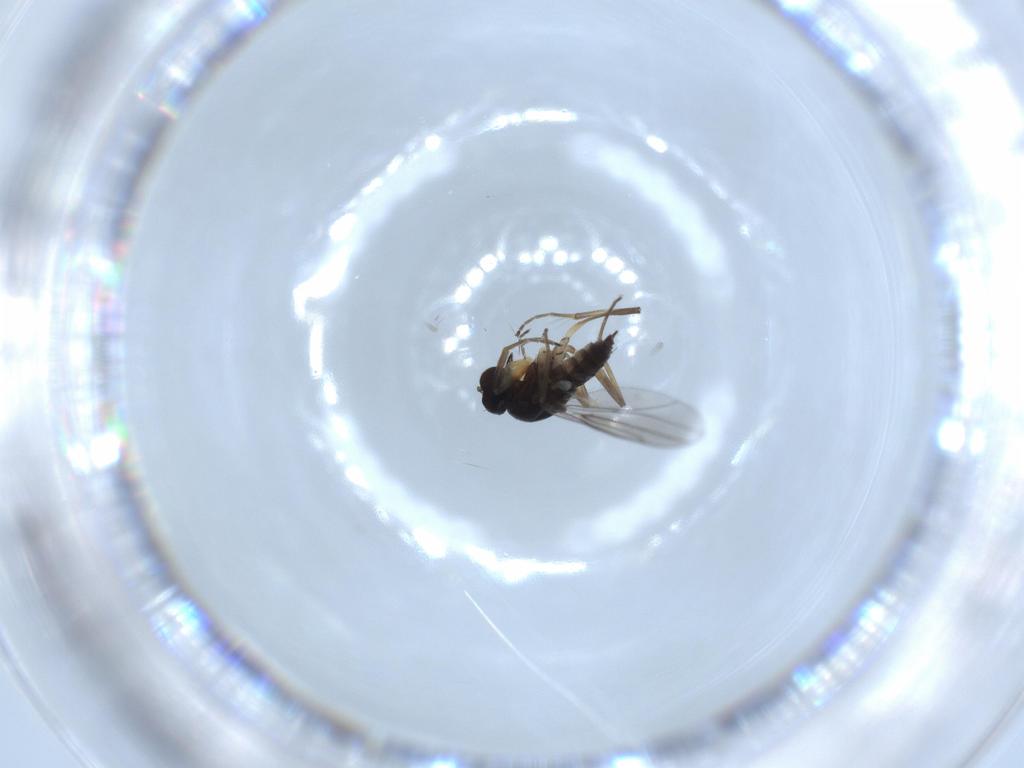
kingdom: Animalia
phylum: Arthropoda
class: Insecta
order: Diptera
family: Hybotidae
